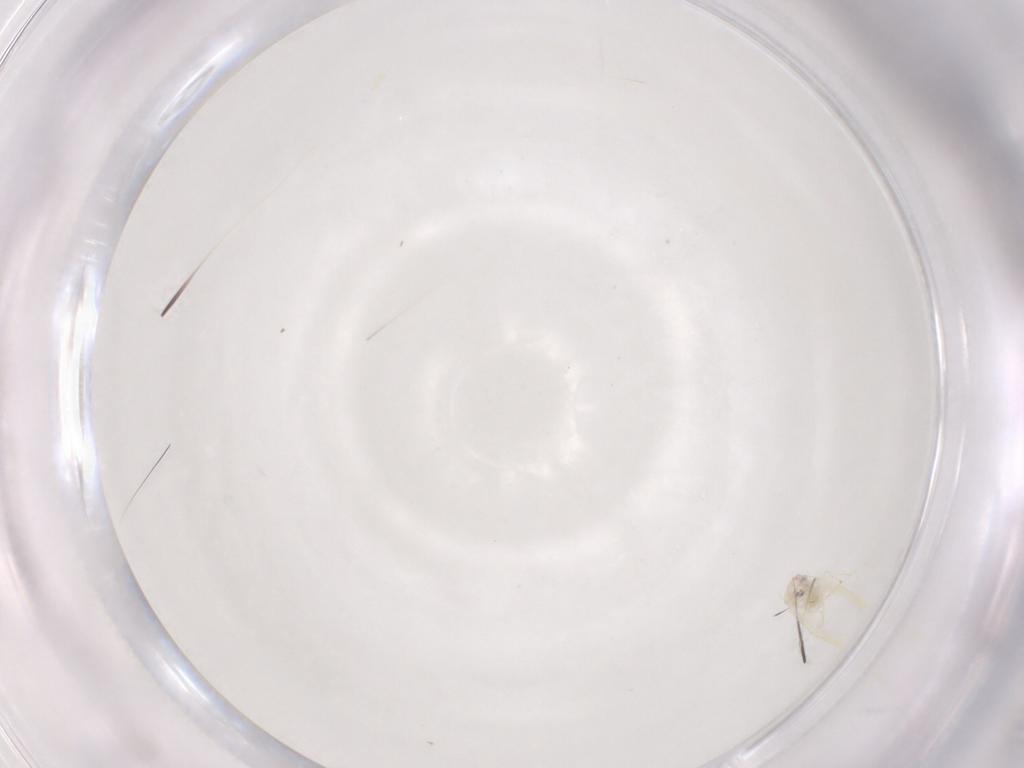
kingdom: Animalia
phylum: Arthropoda
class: Insecta
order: Hemiptera
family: Aleyrodidae
